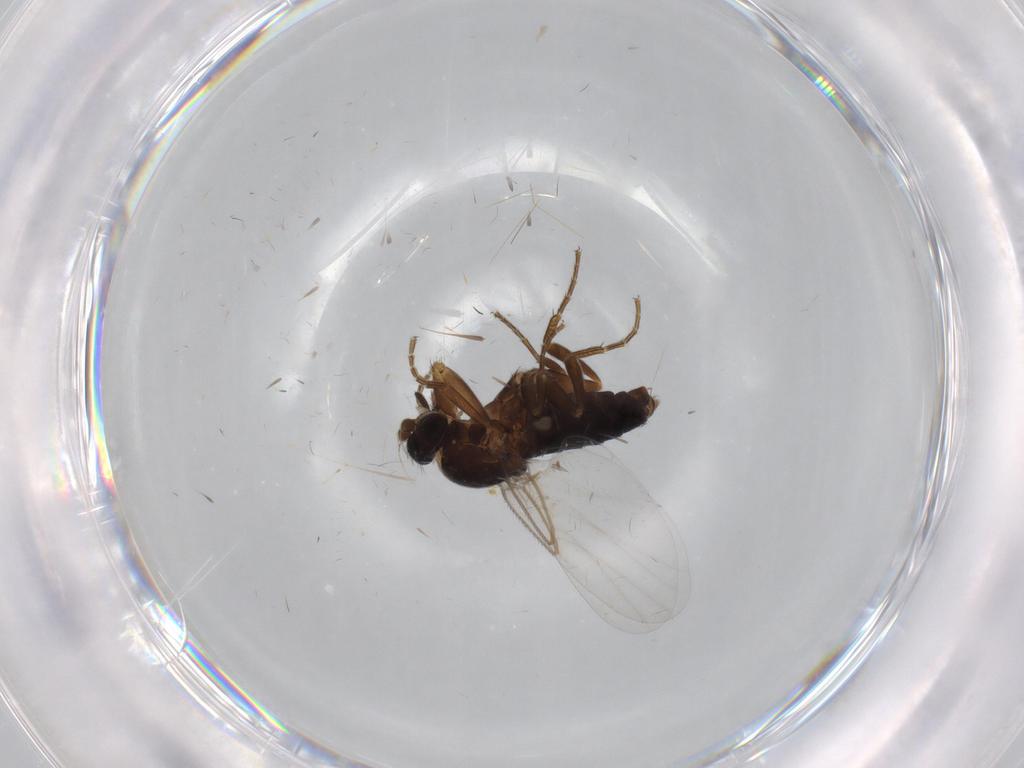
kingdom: Animalia
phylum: Arthropoda
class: Insecta
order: Diptera
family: Phoridae
